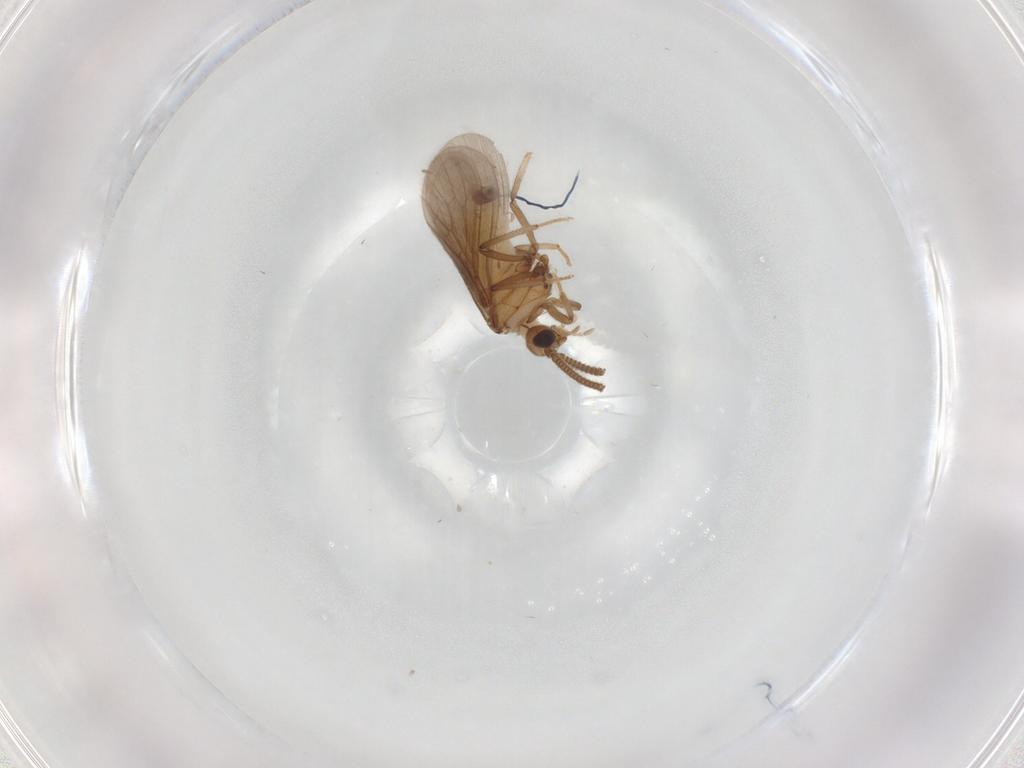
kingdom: Animalia
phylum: Arthropoda
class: Insecta
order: Neuroptera
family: Coniopterygidae
